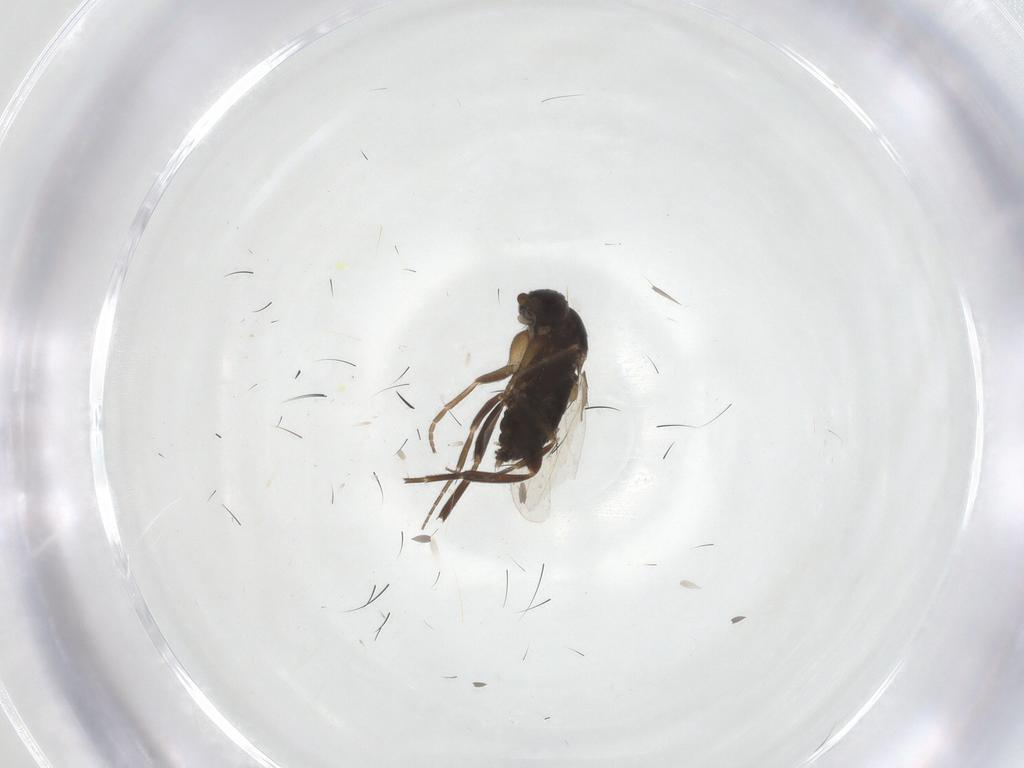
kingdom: Animalia
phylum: Arthropoda
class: Insecta
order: Diptera
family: Phoridae
